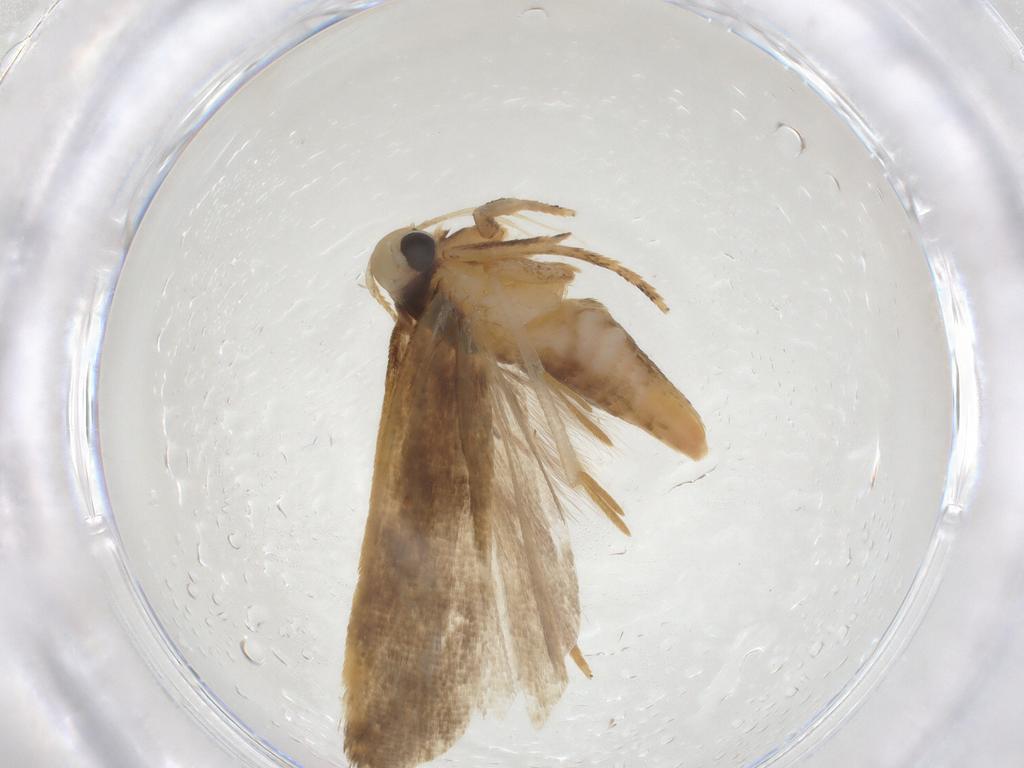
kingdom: Animalia
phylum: Arthropoda
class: Insecta
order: Lepidoptera
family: Gelechiidae
